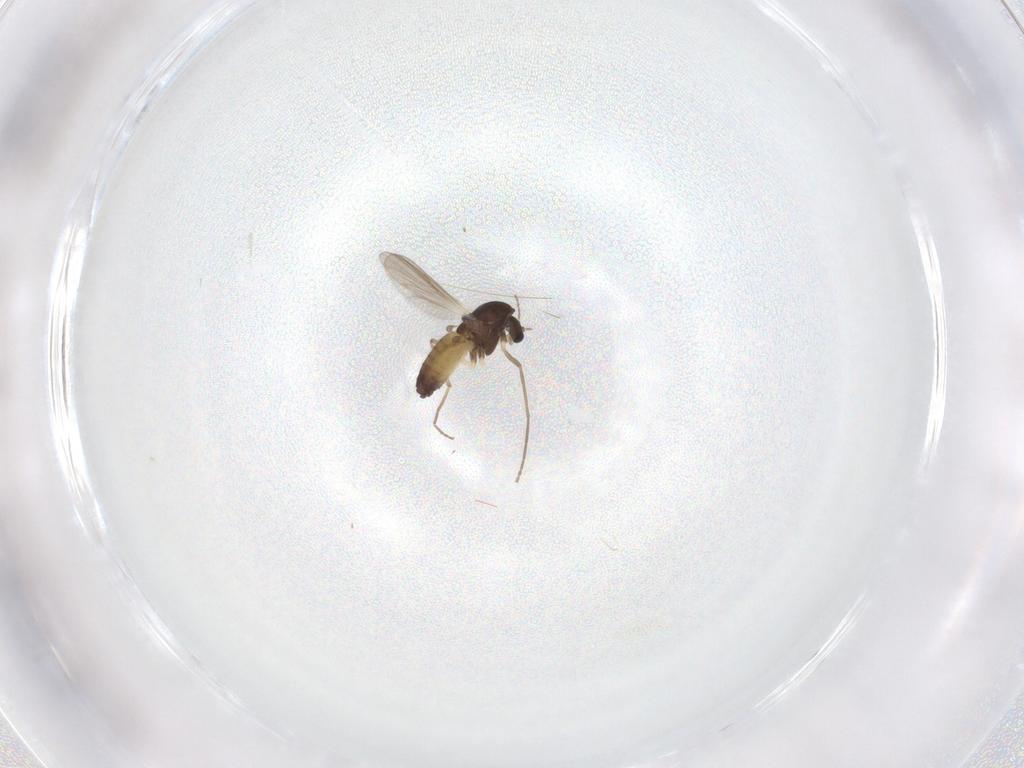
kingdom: Animalia
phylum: Arthropoda
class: Insecta
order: Diptera
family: Chironomidae
